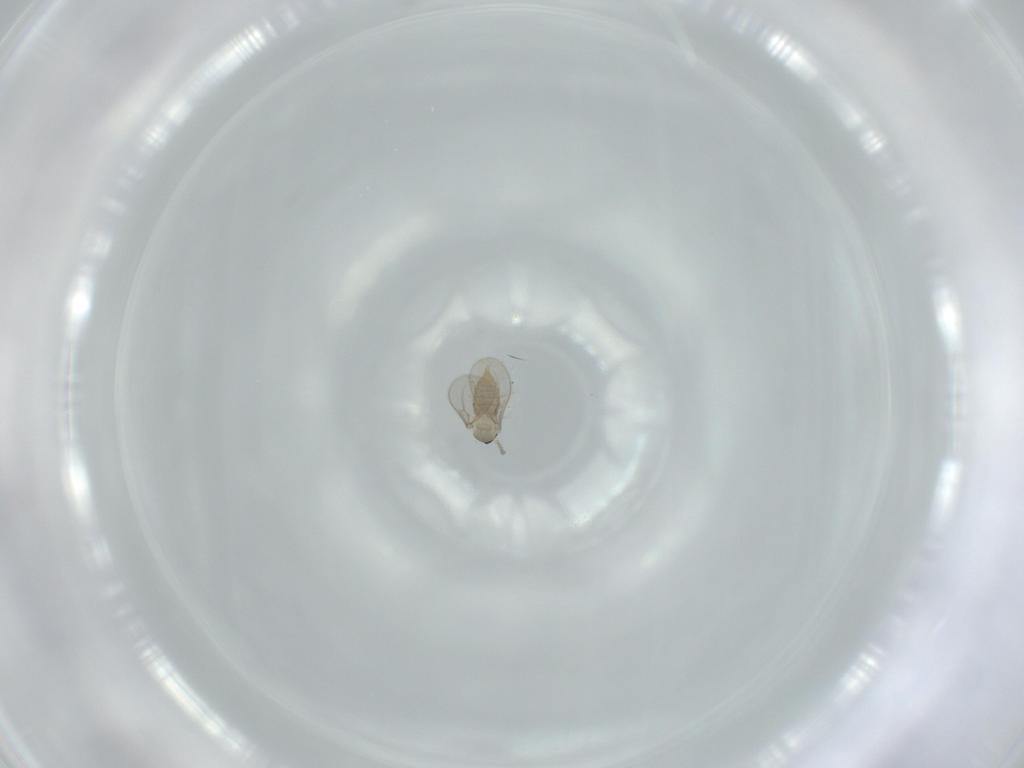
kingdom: Animalia
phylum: Arthropoda
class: Insecta
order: Diptera
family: Cecidomyiidae
